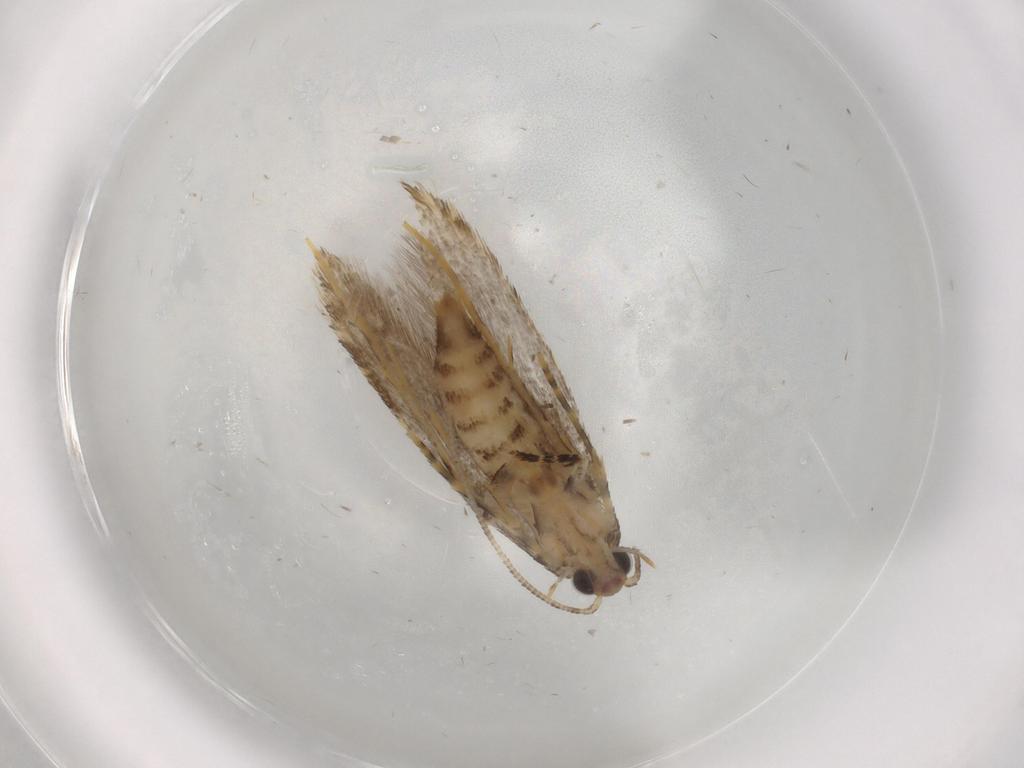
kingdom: Animalia
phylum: Arthropoda
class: Insecta
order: Lepidoptera
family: Tineidae
